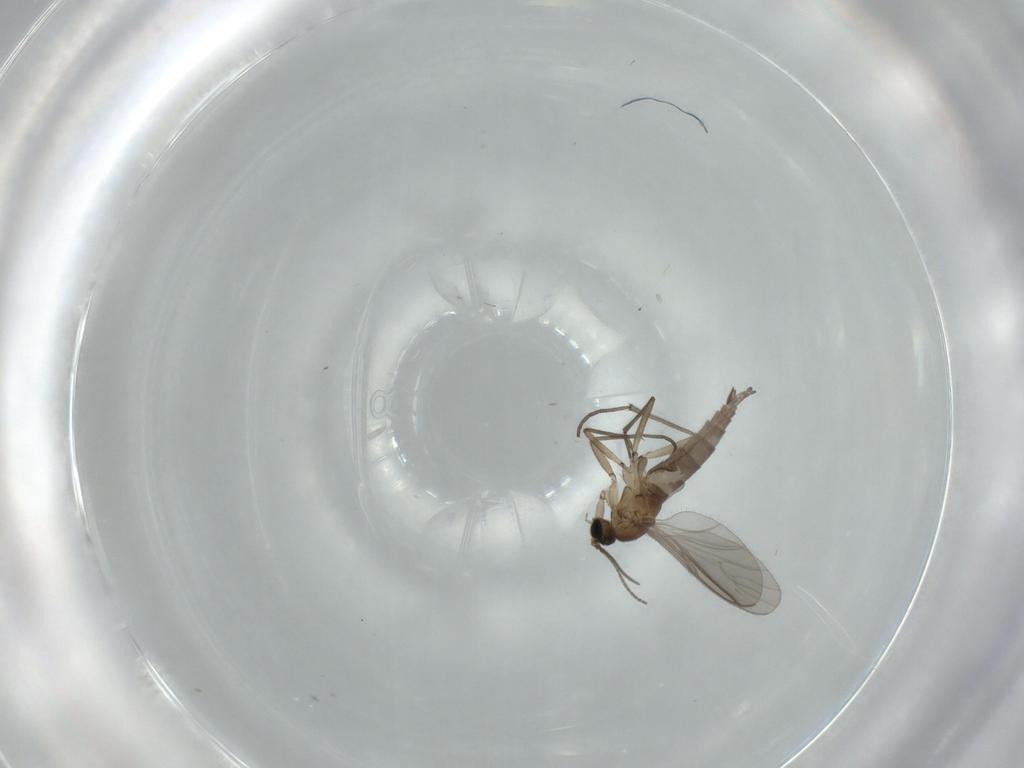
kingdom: Animalia
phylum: Arthropoda
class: Insecta
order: Diptera
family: Sciaridae
